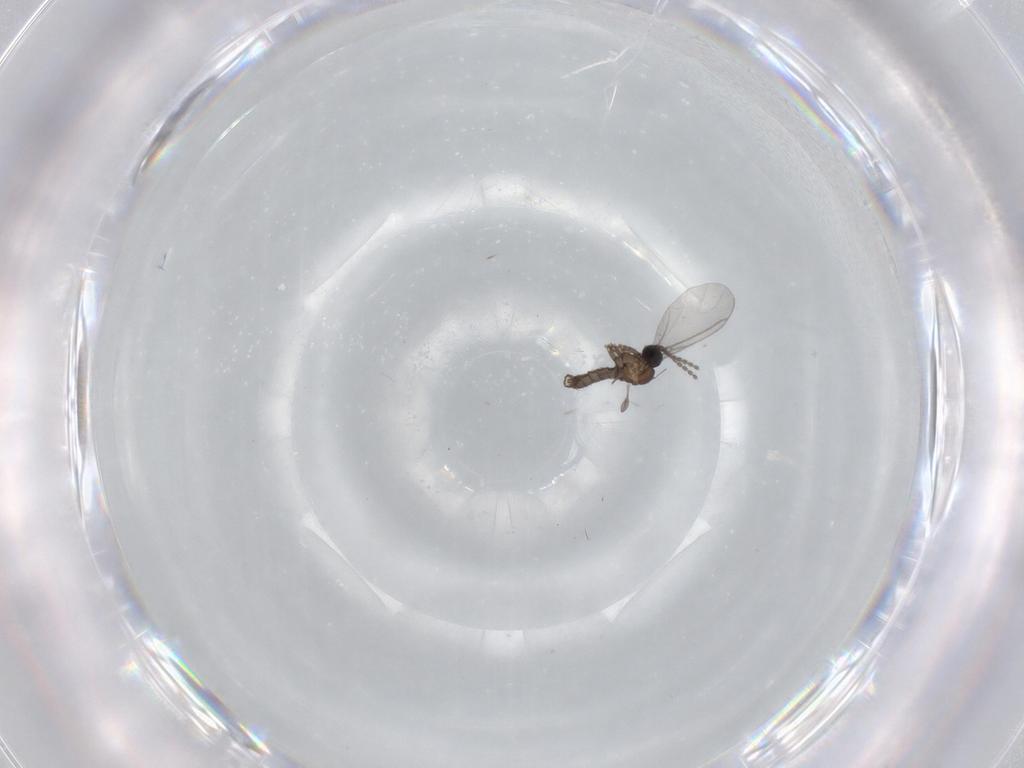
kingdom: Animalia
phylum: Arthropoda
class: Insecta
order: Diptera
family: Sciaridae
